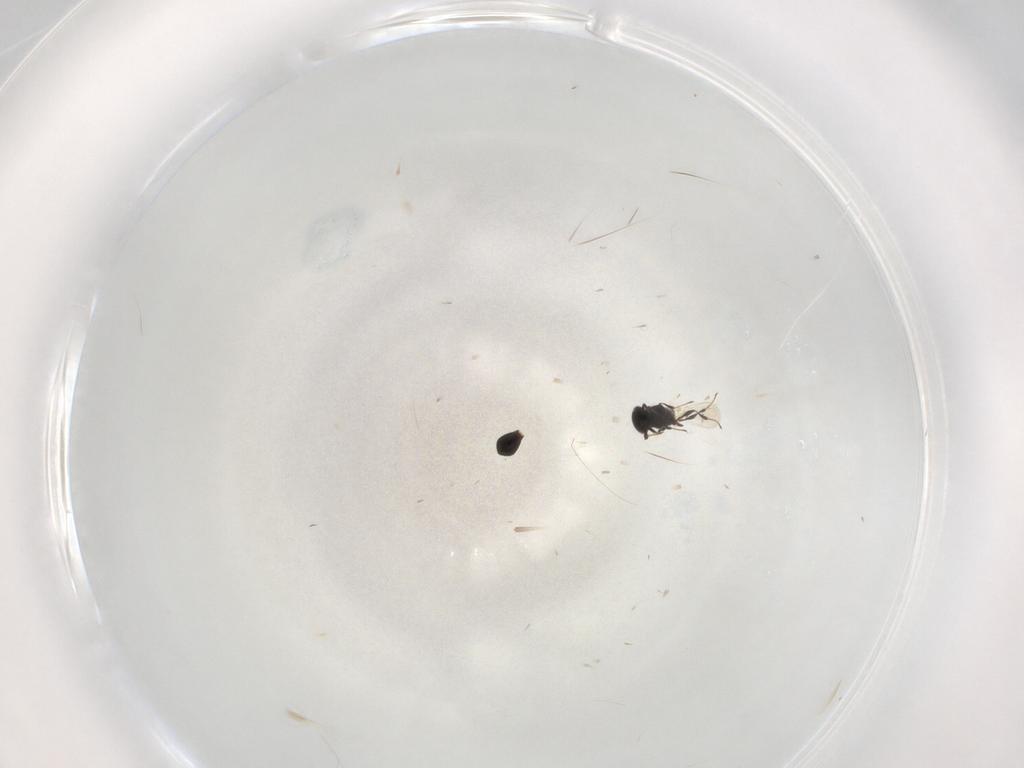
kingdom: Animalia
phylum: Arthropoda
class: Insecta
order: Hymenoptera
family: Platygastridae
